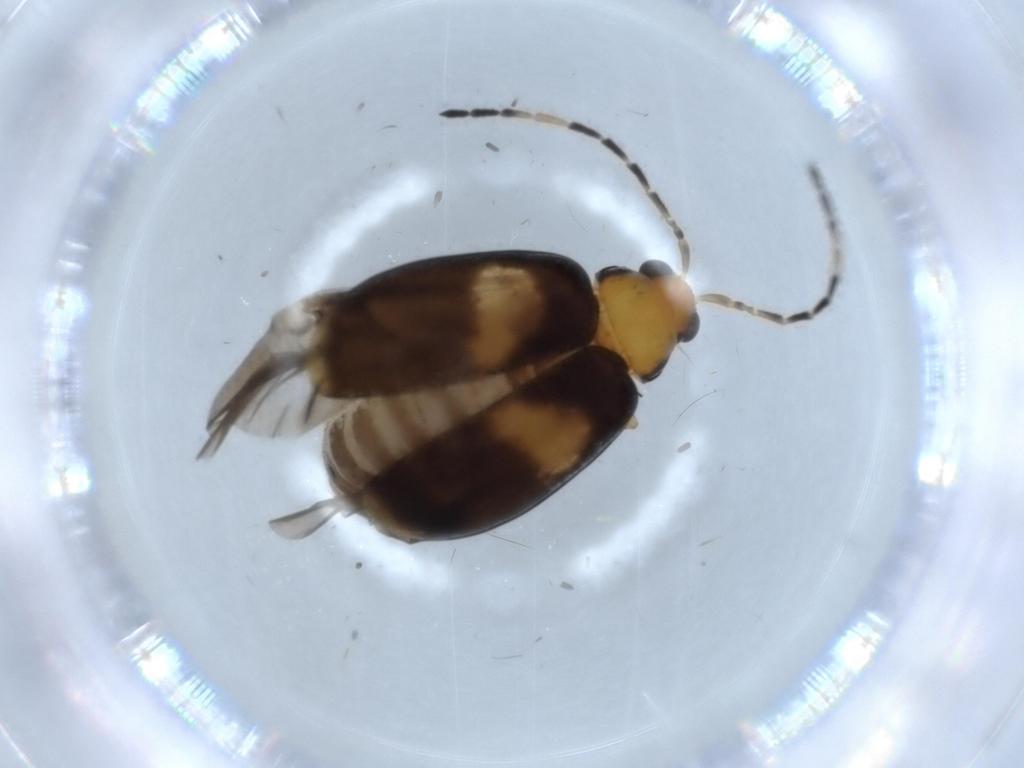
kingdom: Animalia
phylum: Arthropoda
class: Insecta
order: Coleoptera
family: Chrysomelidae
